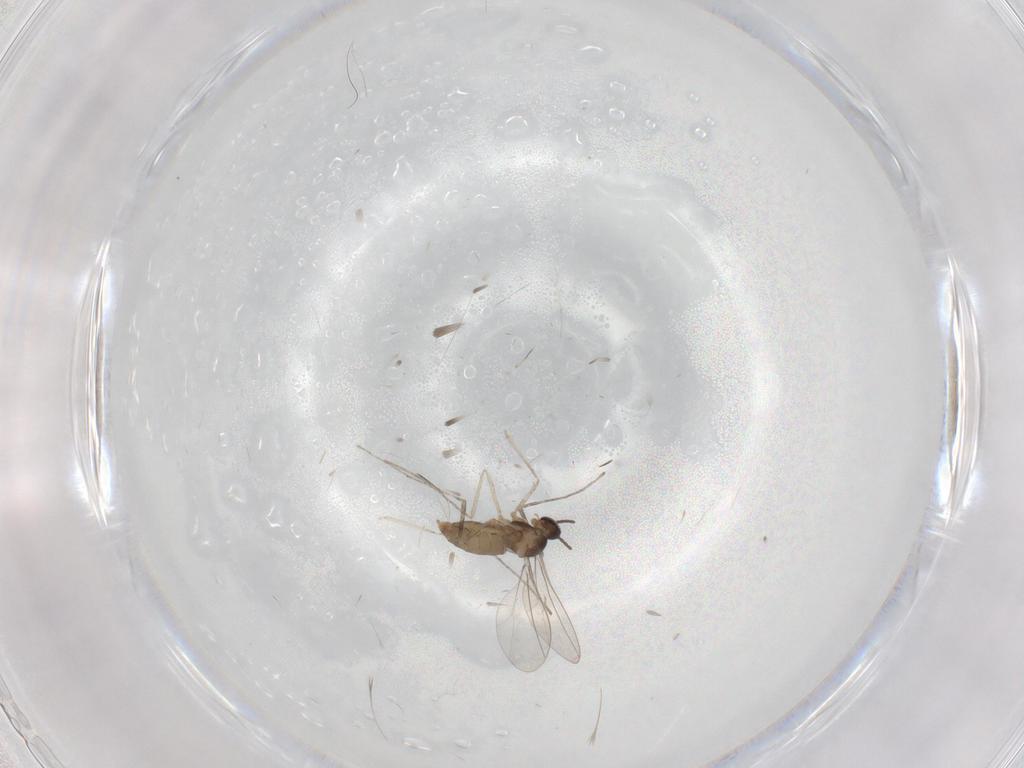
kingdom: Animalia
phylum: Arthropoda
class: Insecta
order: Diptera
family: Cecidomyiidae
